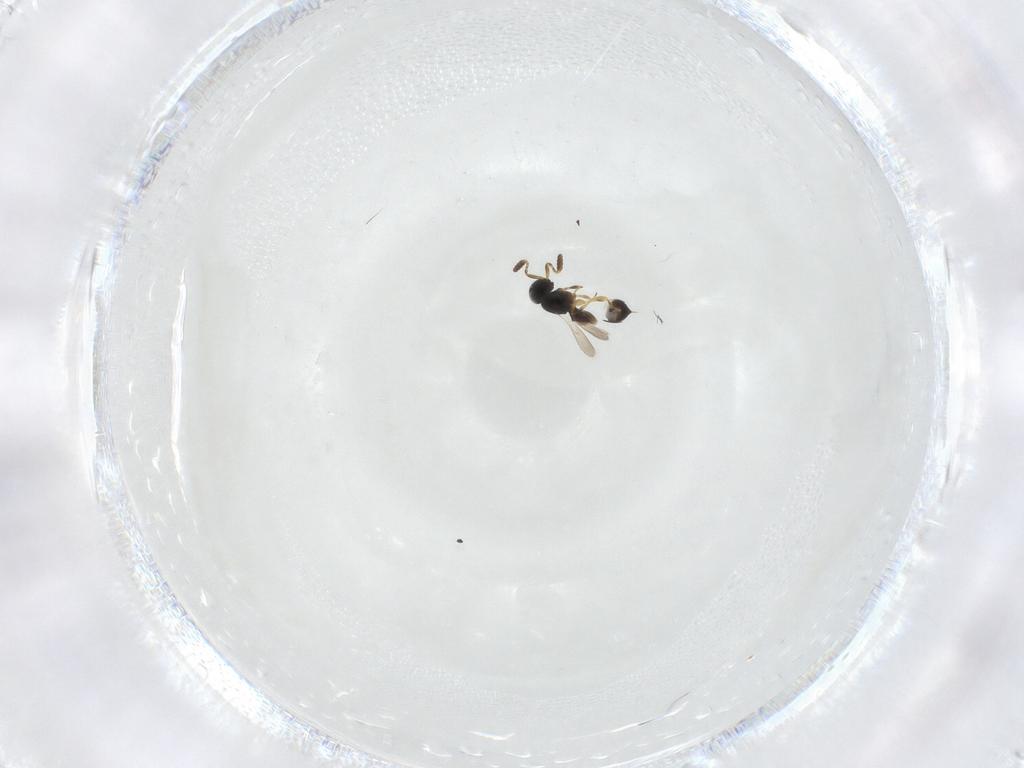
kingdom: Animalia
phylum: Arthropoda
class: Insecta
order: Hymenoptera
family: Scelionidae
